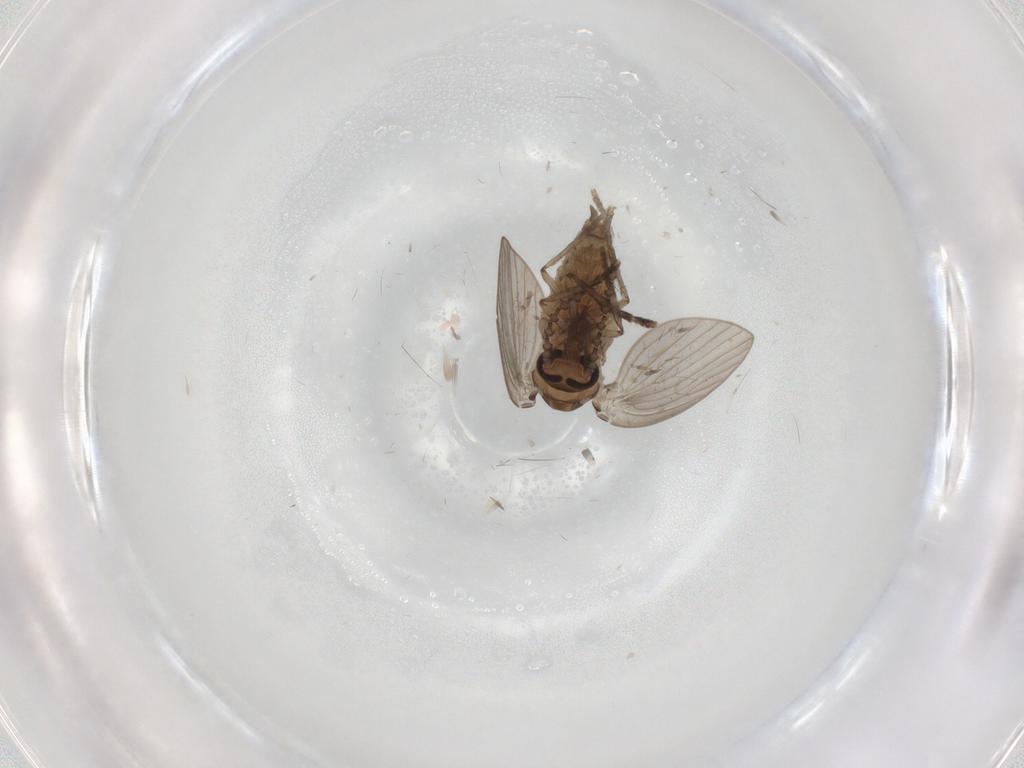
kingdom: Animalia
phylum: Arthropoda
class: Insecta
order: Diptera
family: Psychodidae
